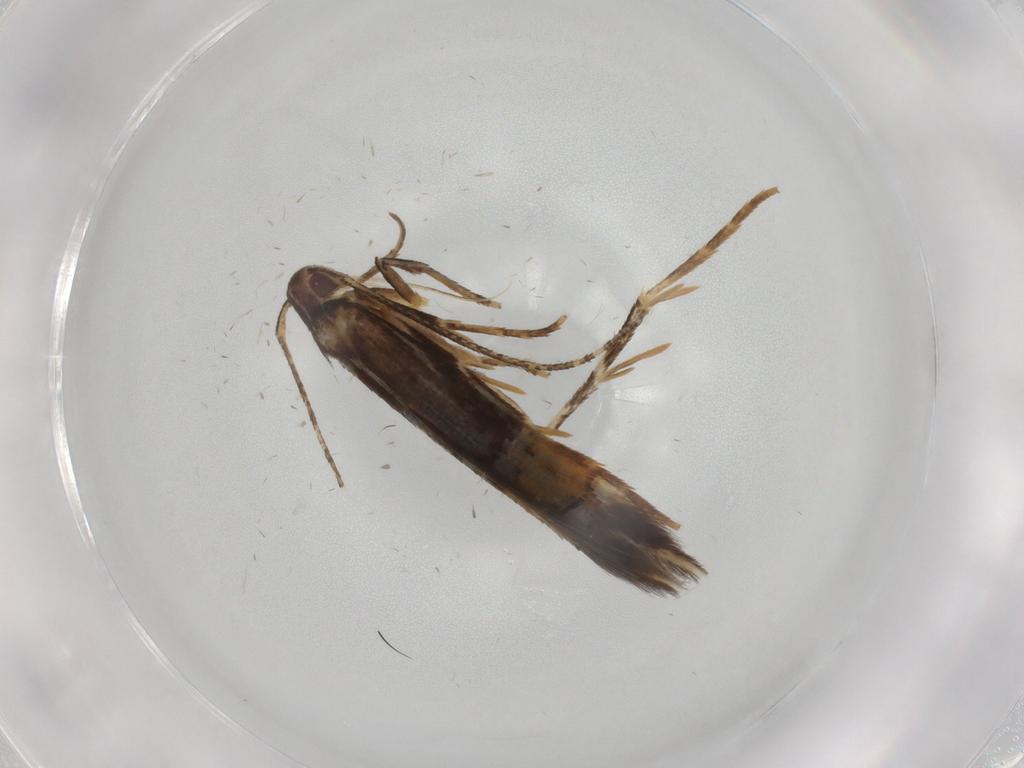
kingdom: Animalia
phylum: Arthropoda
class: Insecta
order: Lepidoptera
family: Cosmopterigidae
